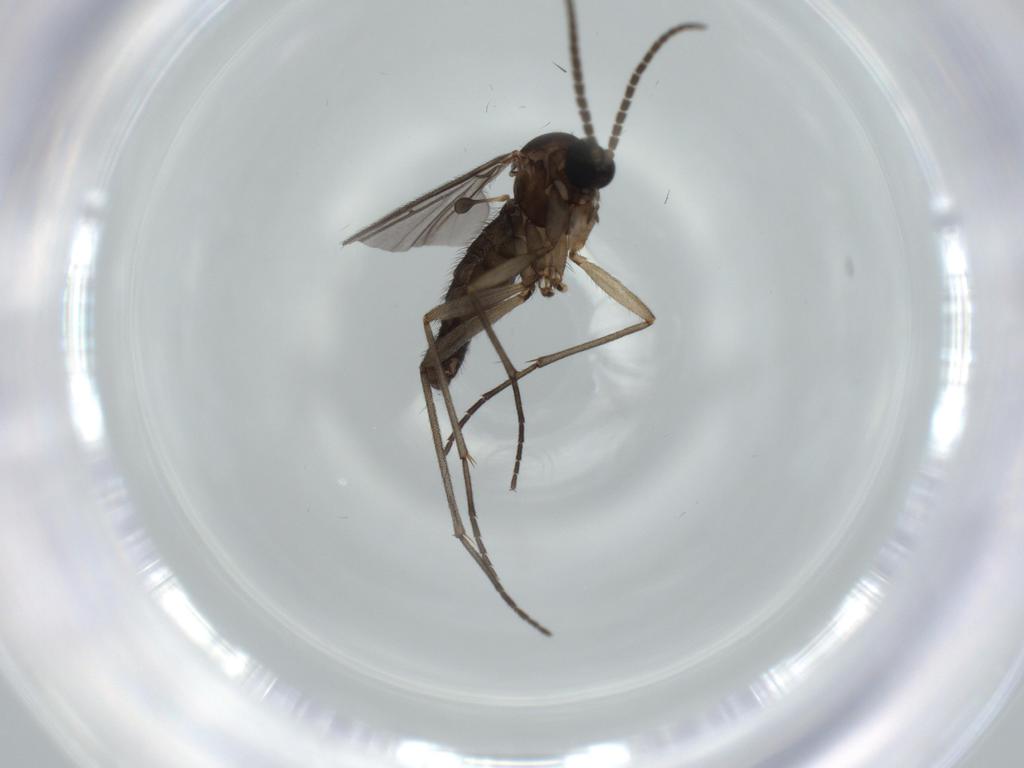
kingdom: Animalia
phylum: Arthropoda
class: Insecta
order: Diptera
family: Sciaridae
